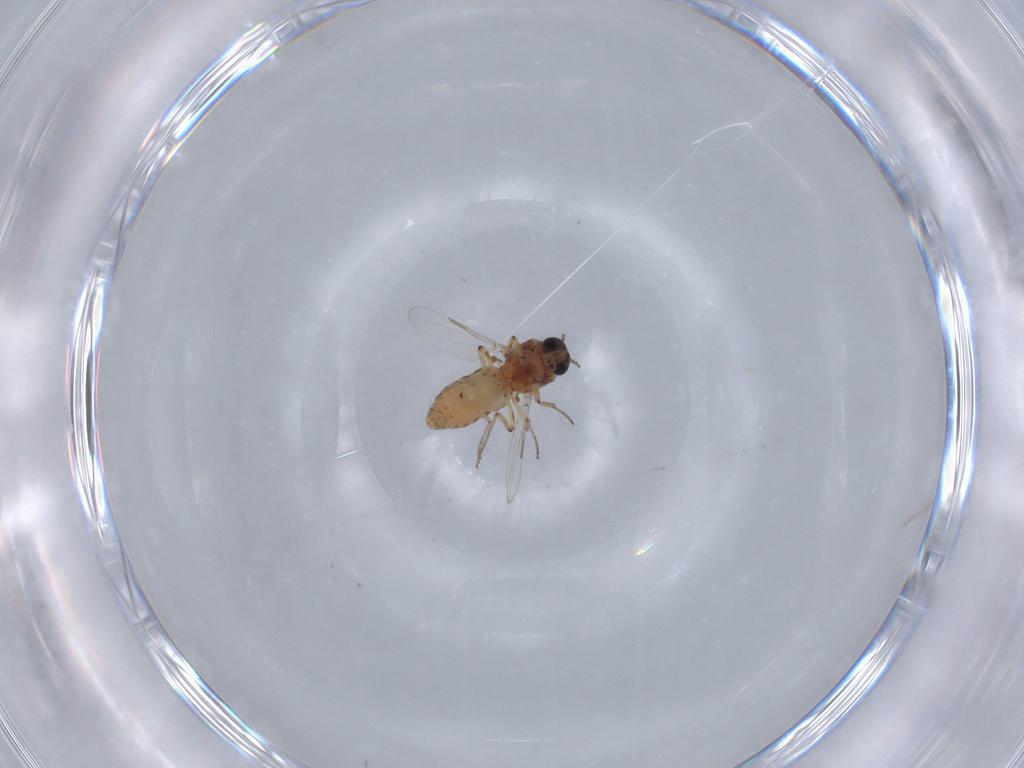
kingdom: Animalia
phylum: Arthropoda
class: Insecta
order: Diptera
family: Ceratopogonidae
